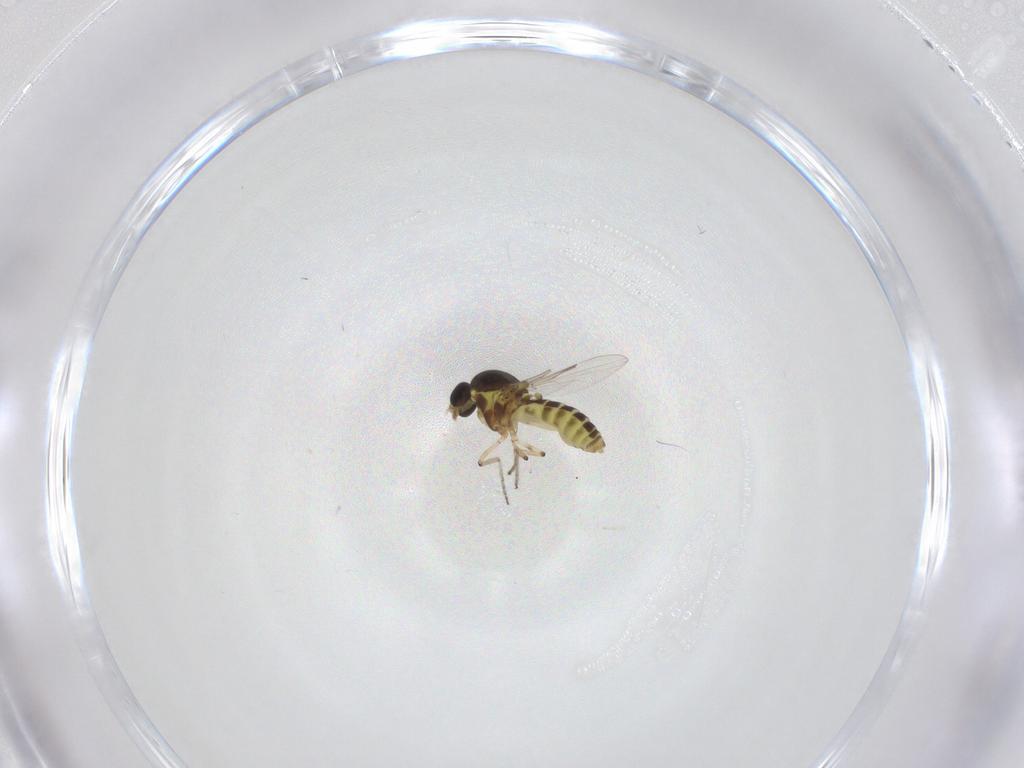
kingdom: Animalia
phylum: Arthropoda
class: Insecta
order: Diptera
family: Ceratopogonidae
